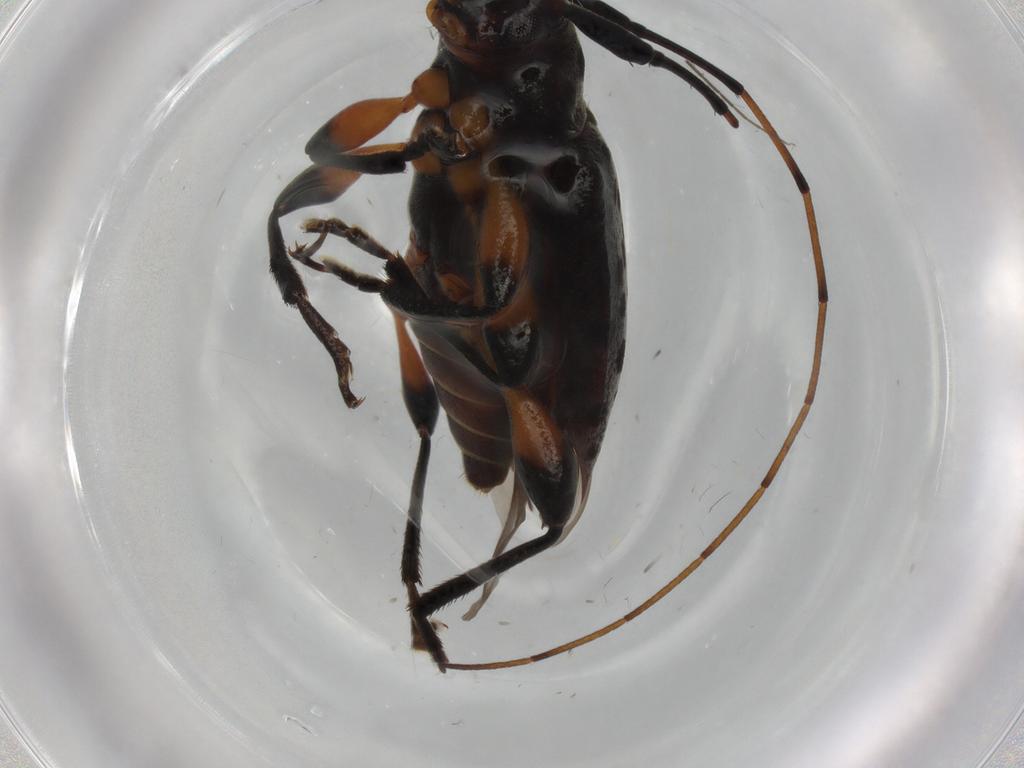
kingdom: Animalia
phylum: Arthropoda
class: Insecta
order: Coleoptera
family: Cerambycidae
